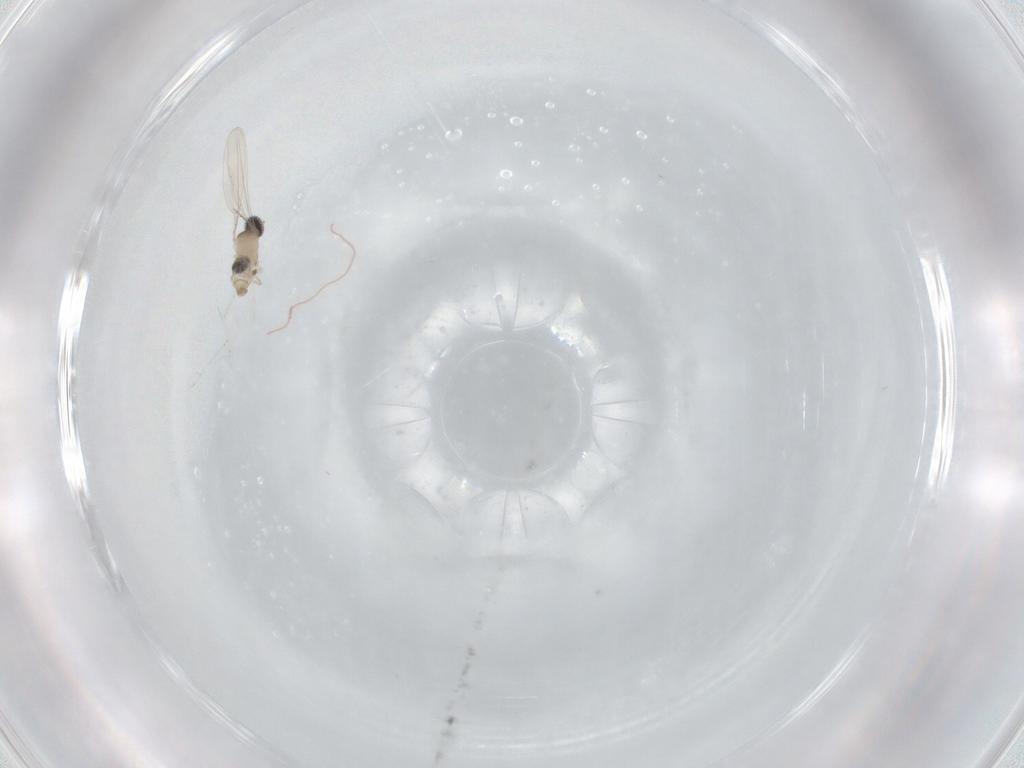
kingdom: Animalia
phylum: Arthropoda
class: Insecta
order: Diptera
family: Cecidomyiidae
